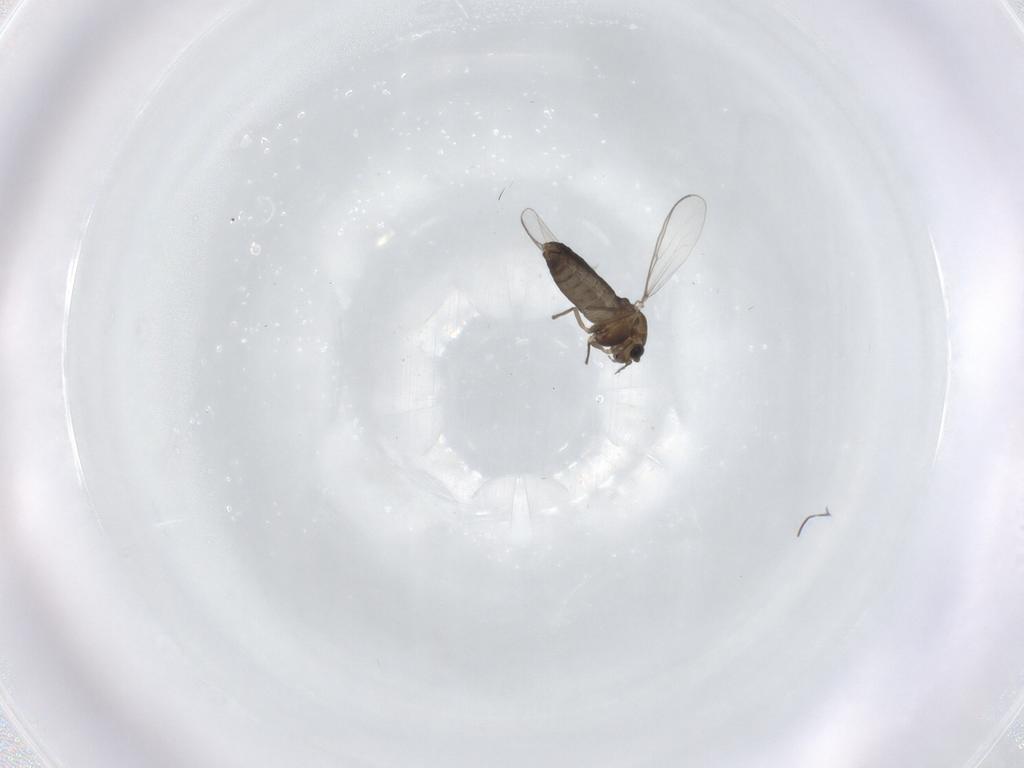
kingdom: Animalia
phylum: Arthropoda
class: Insecta
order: Diptera
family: Chironomidae
